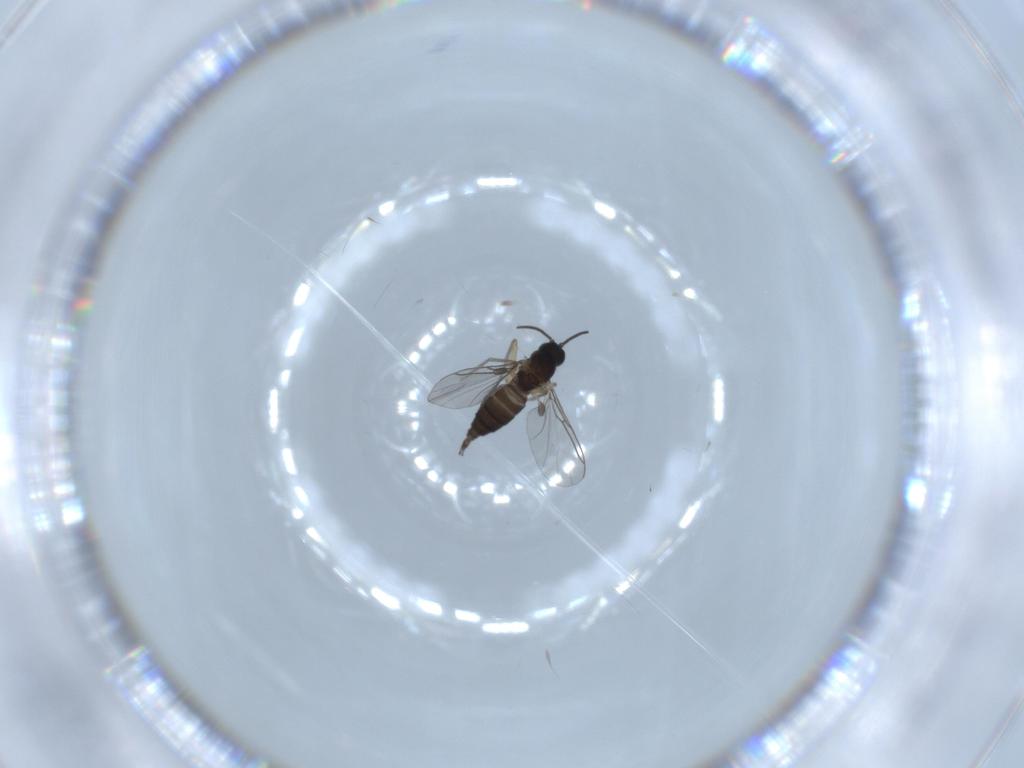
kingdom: Animalia
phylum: Arthropoda
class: Insecta
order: Diptera
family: Sciaridae
